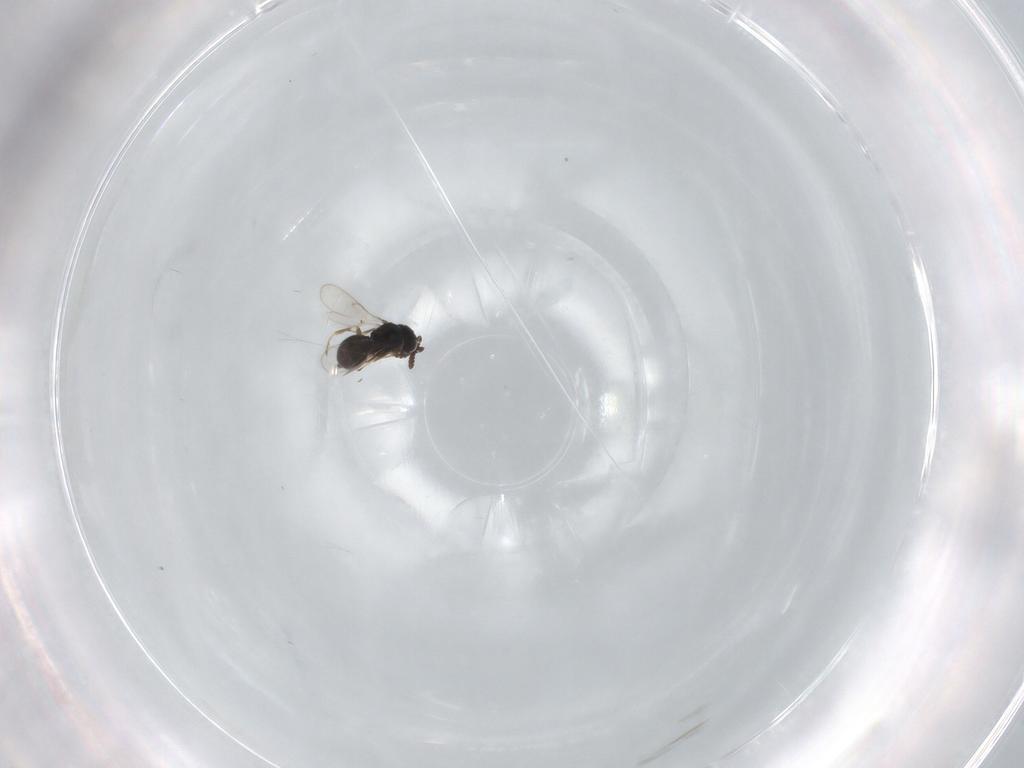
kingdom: Animalia
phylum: Arthropoda
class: Insecta
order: Hymenoptera
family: Scelionidae
